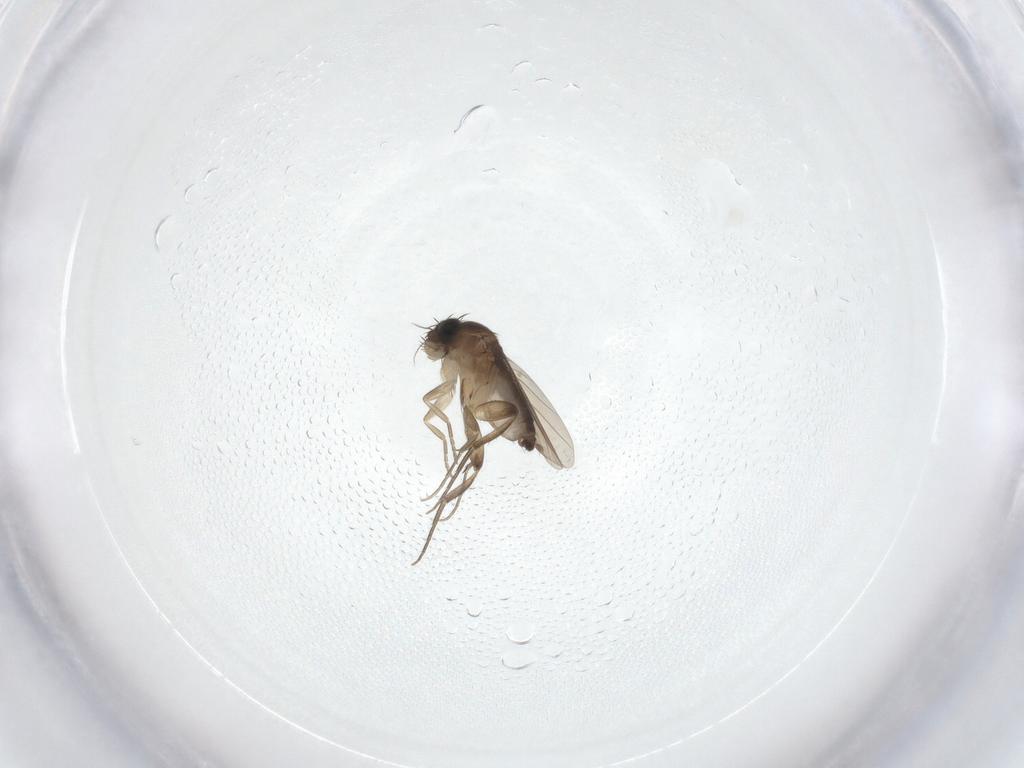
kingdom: Animalia
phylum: Arthropoda
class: Insecta
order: Diptera
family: Phoridae
